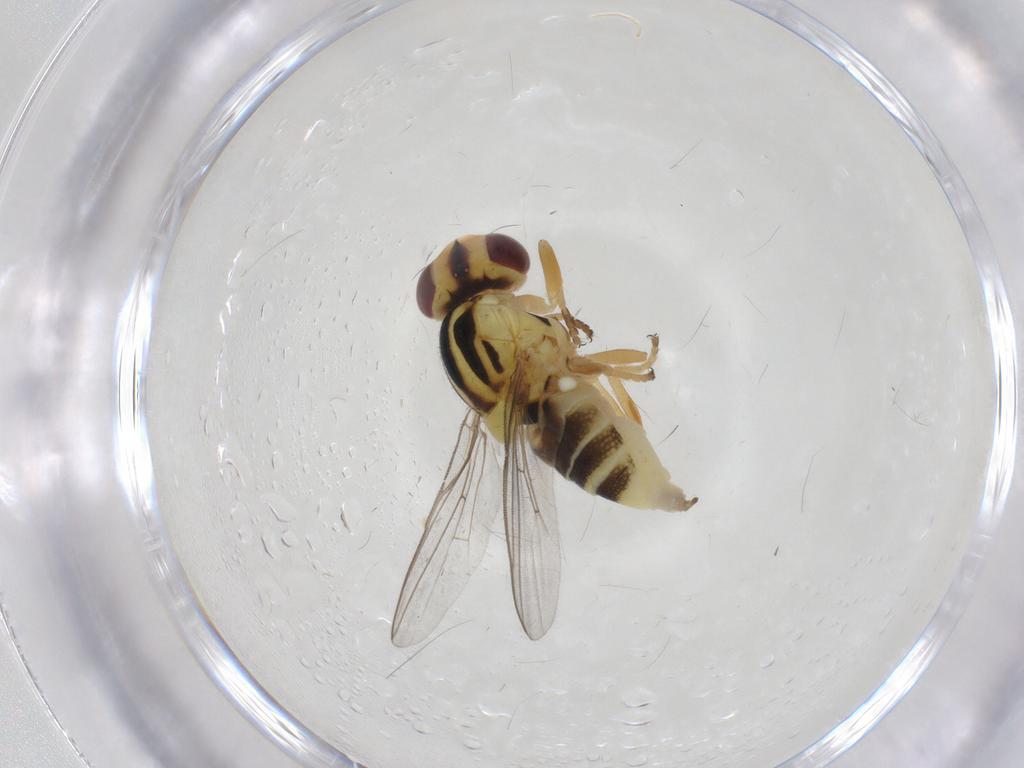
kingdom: Animalia
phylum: Arthropoda
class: Insecta
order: Diptera
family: Chloropidae
